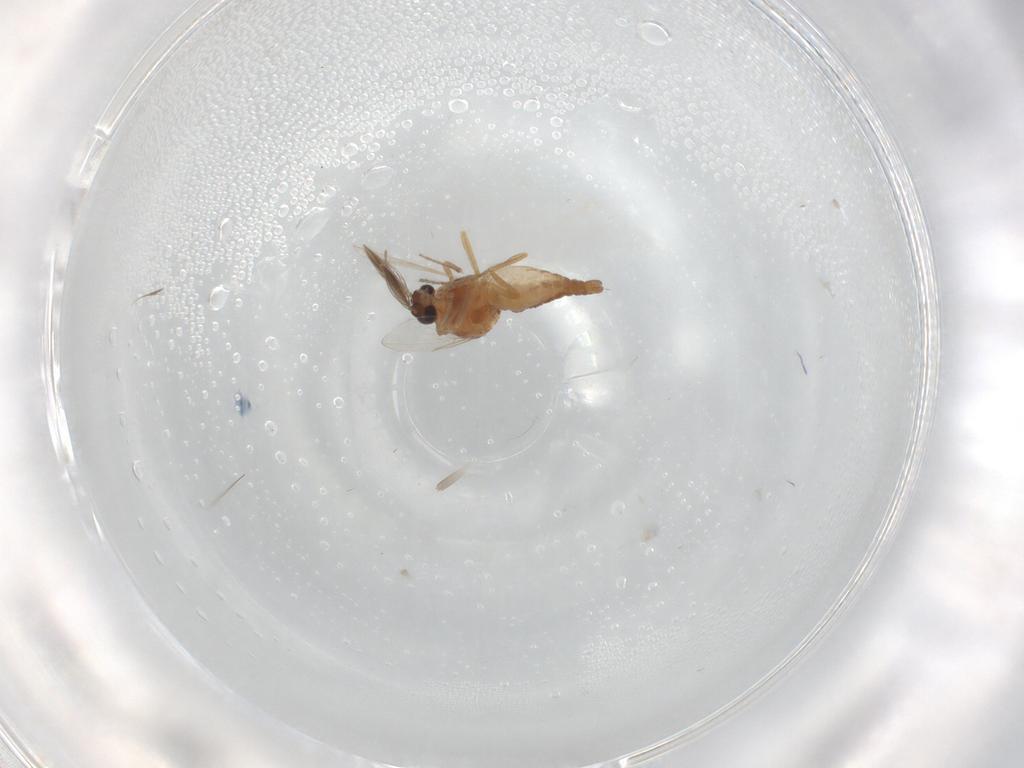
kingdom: Animalia
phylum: Arthropoda
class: Insecta
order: Diptera
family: Ceratopogonidae
